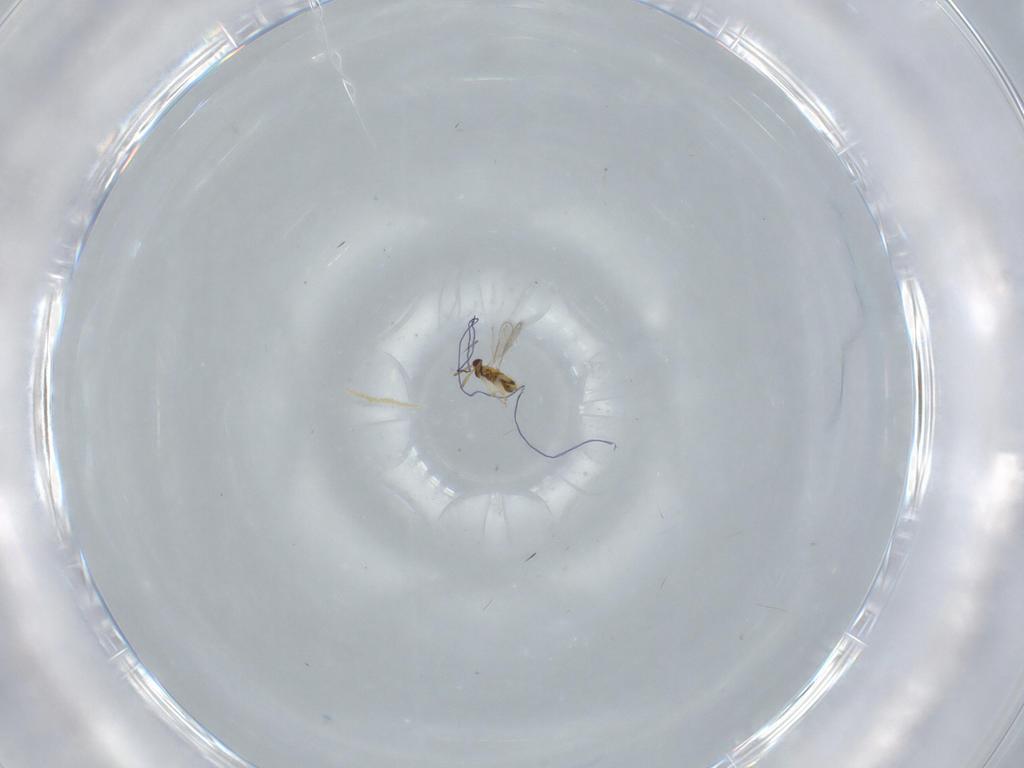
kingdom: Animalia
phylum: Arthropoda
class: Insecta
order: Hymenoptera
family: Aphelinidae
